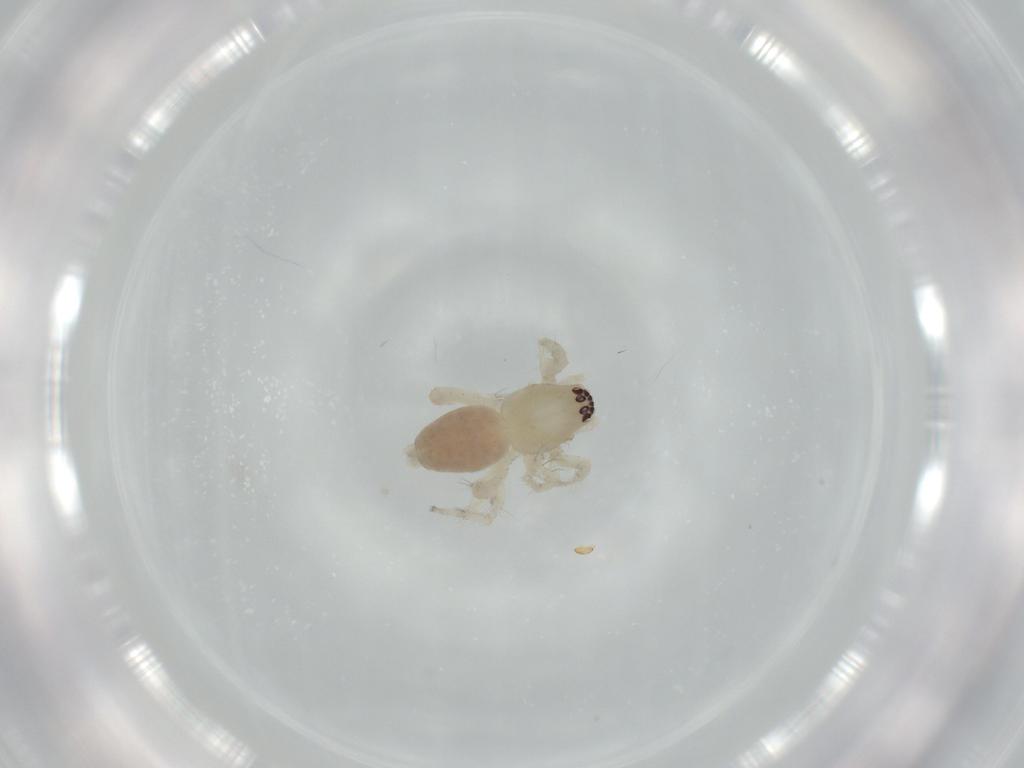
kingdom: Animalia
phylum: Arthropoda
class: Arachnida
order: Araneae
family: Anyphaenidae
